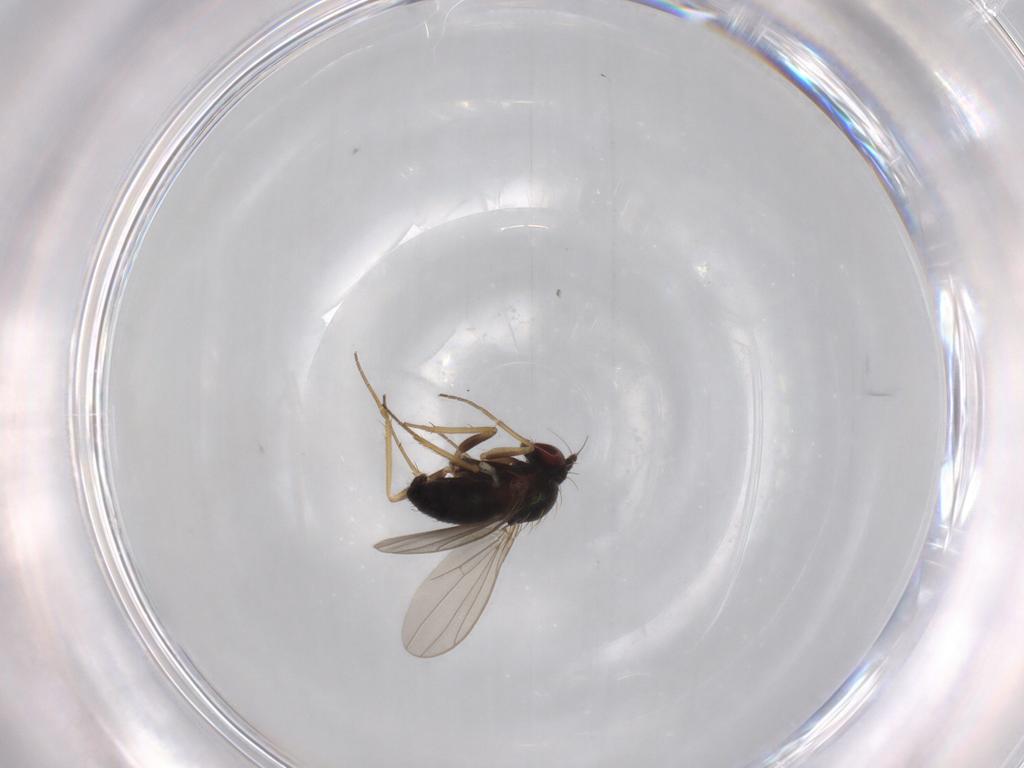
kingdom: Animalia
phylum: Arthropoda
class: Insecta
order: Diptera
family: Dolichopodidae
